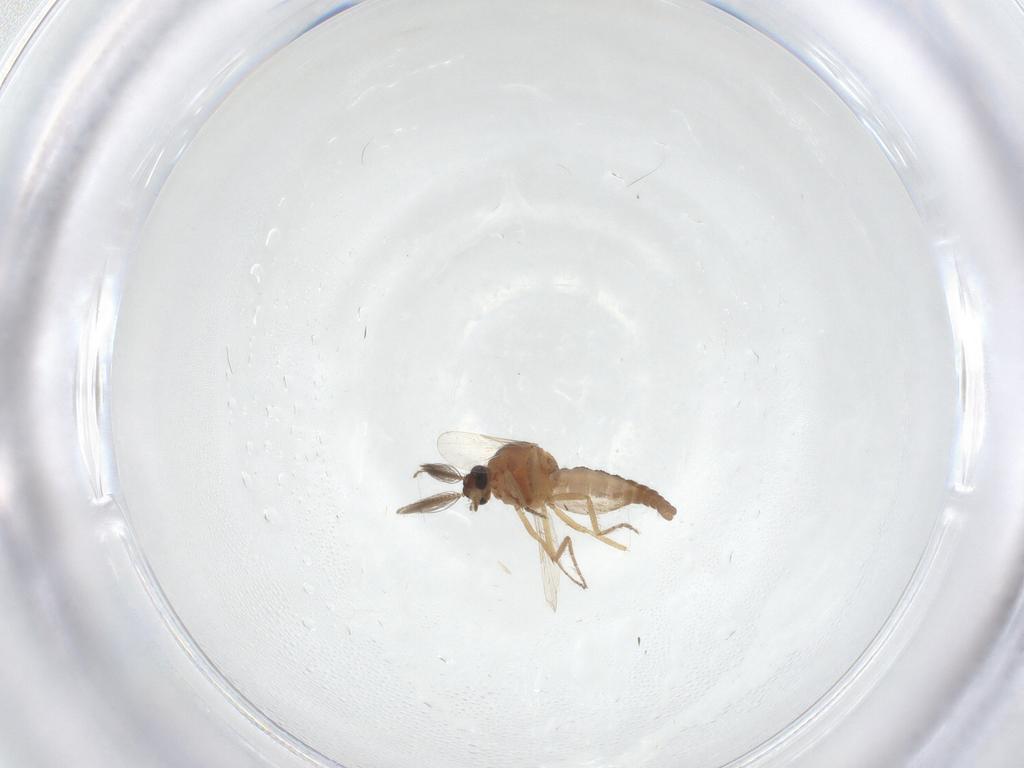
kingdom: Animalia
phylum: Arthropoda
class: Insecta
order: Diptera
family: Ceratopogonidae
